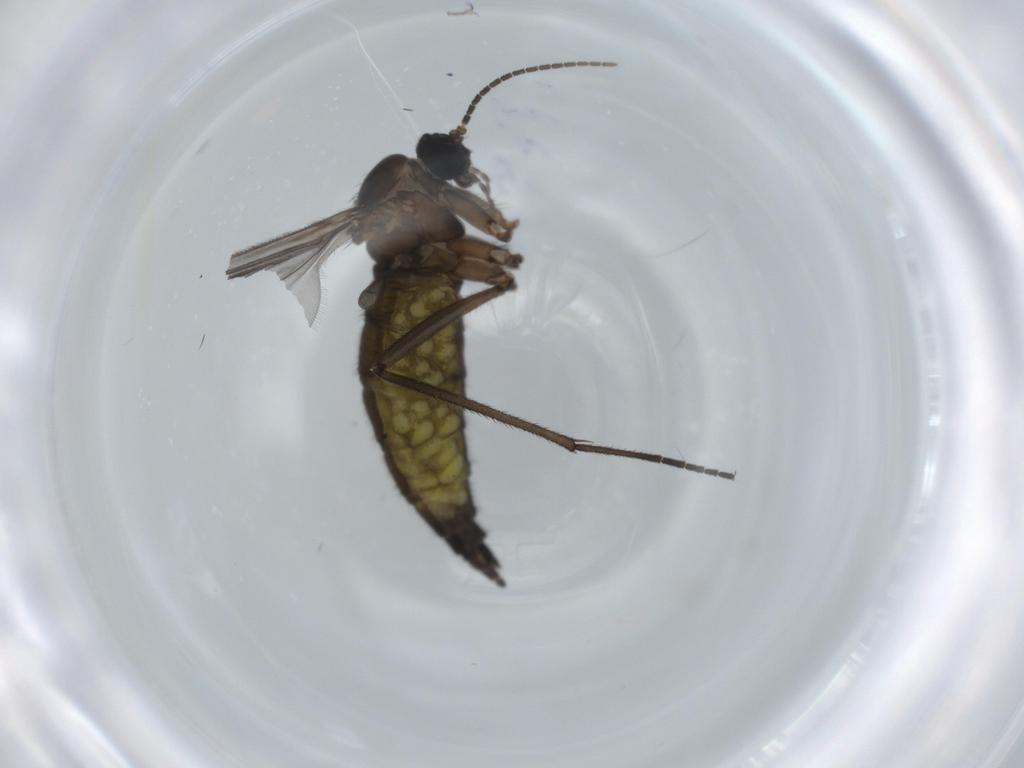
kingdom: Animalia
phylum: Arthropoda
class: Insecta
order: Diptera
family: Sciaridae
